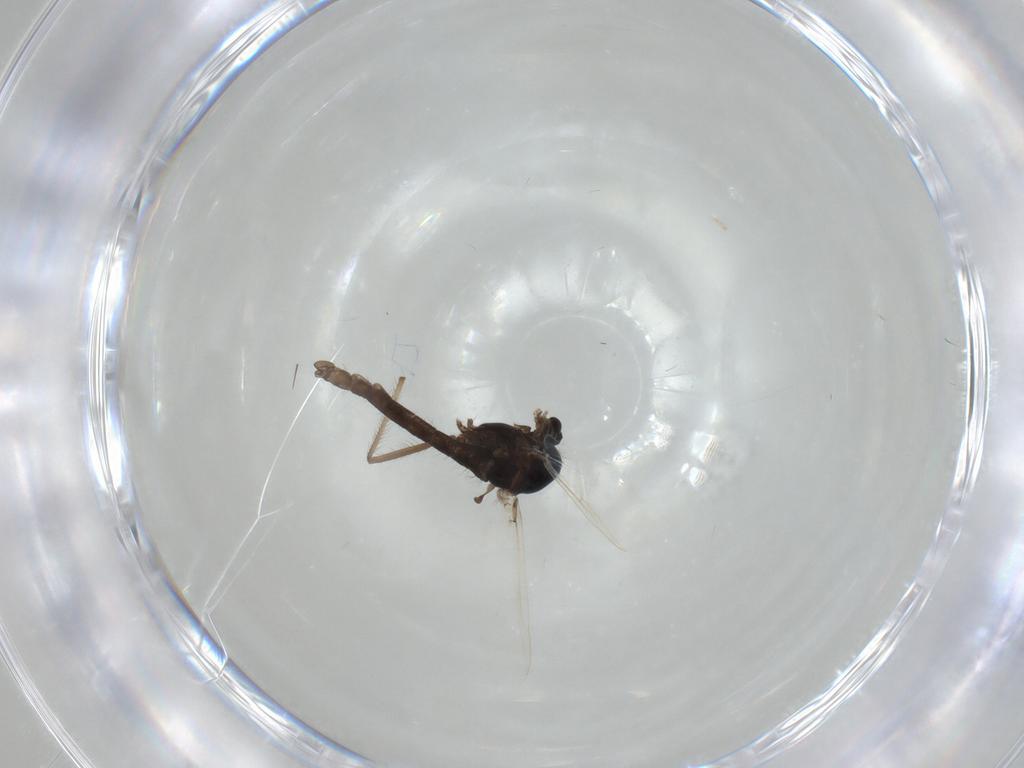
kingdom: Animalia
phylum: Arthropoda
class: Insecta
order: Diptera
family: Chironomidae
